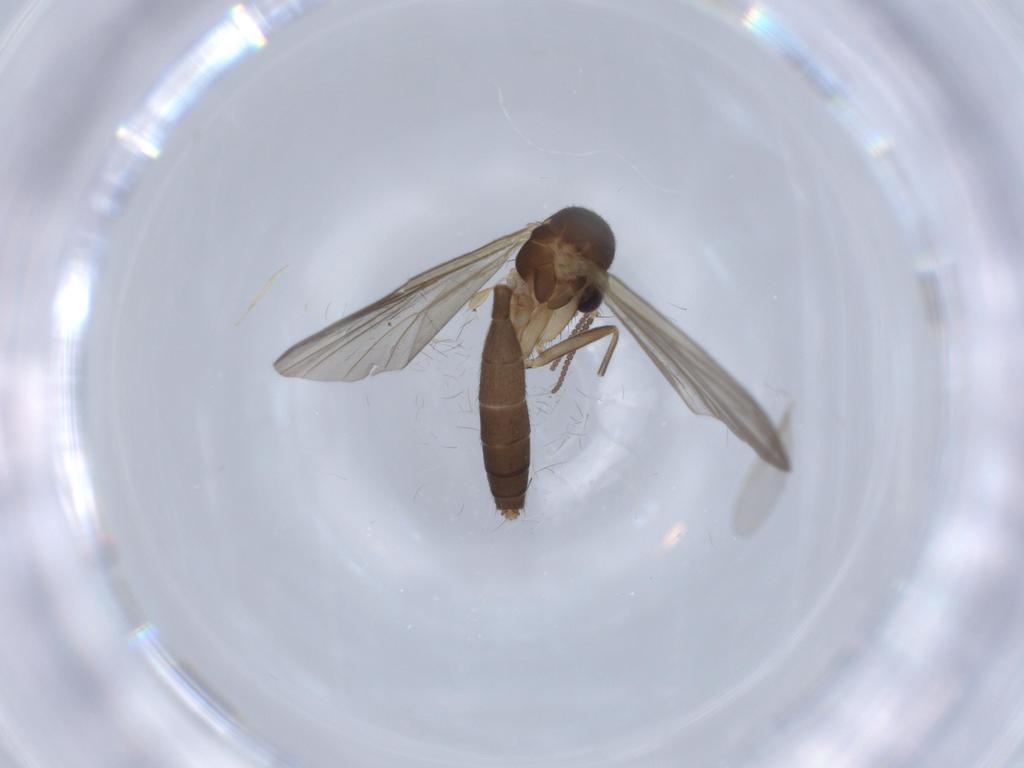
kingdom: Animalia
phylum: Arthropoda
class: Insecta
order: Diptera
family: Mycetophilidae
